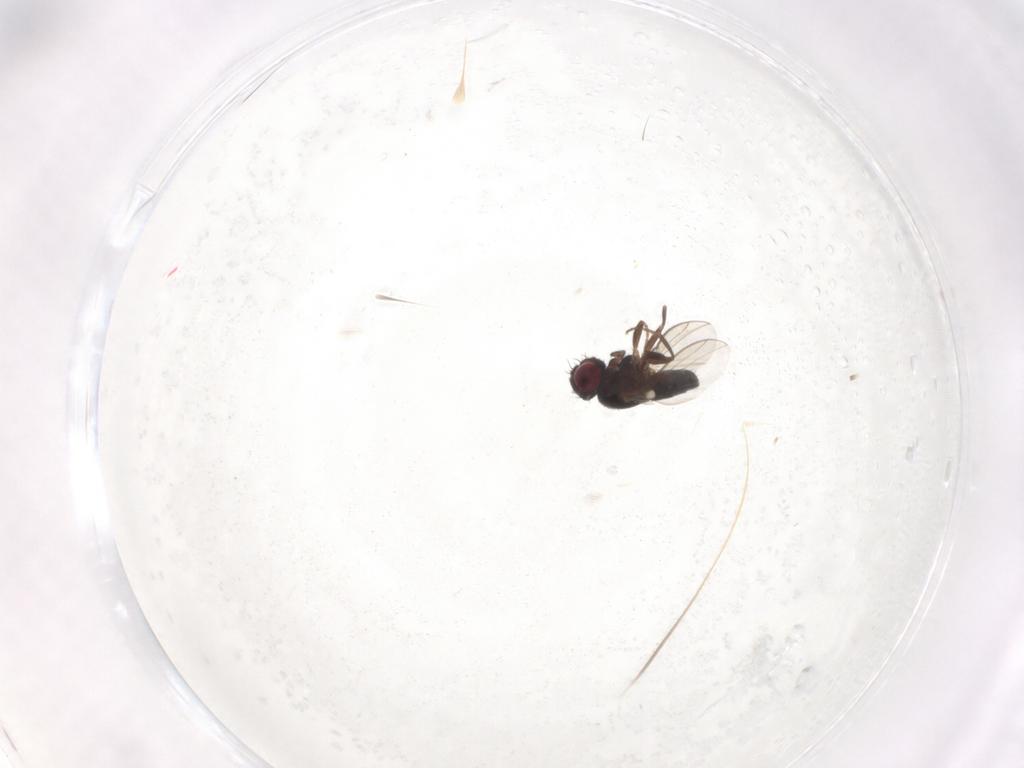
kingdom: Animalia
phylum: Arthropoda
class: Insecta
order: Diptera
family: Carnidae
